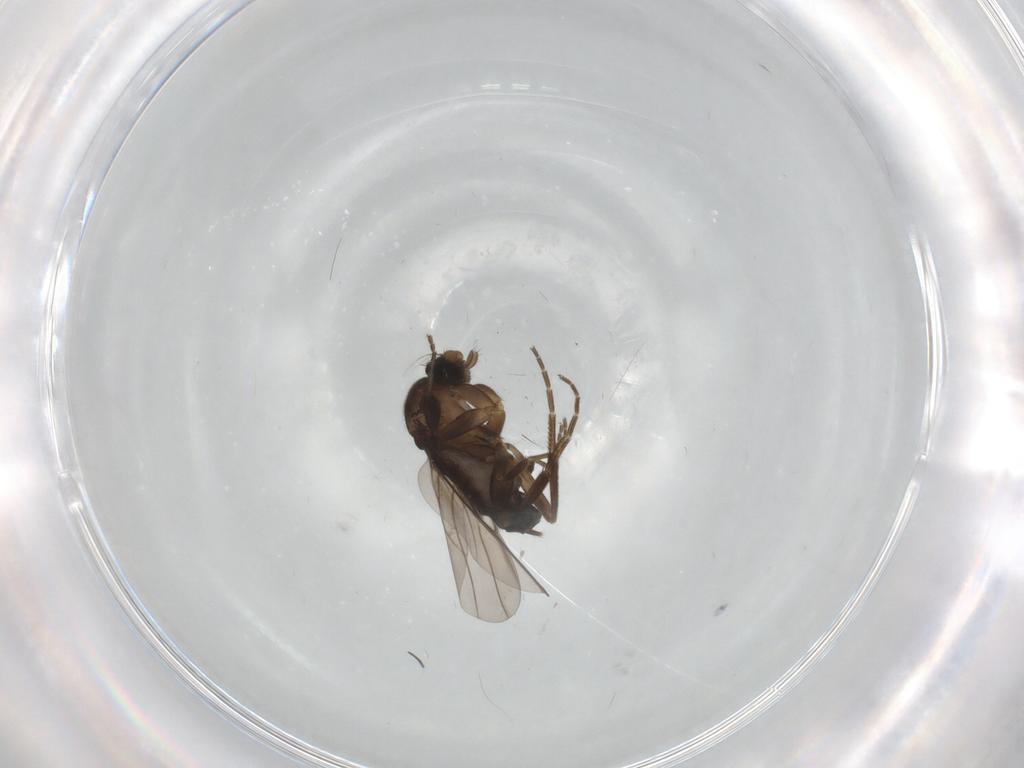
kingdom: Animalia
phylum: Arthropoda
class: Insecta
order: Diptera
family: Phoridae
